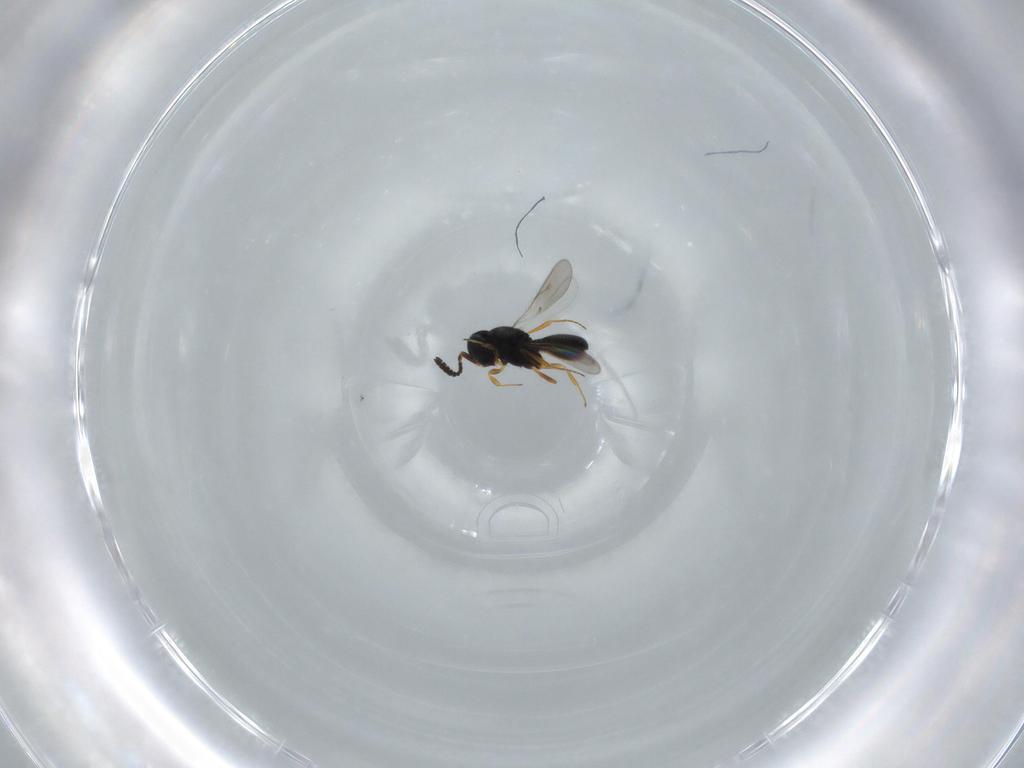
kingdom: Animalia
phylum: Arthropoda
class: Insecta
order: Hymenoptera
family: Scelionidae
